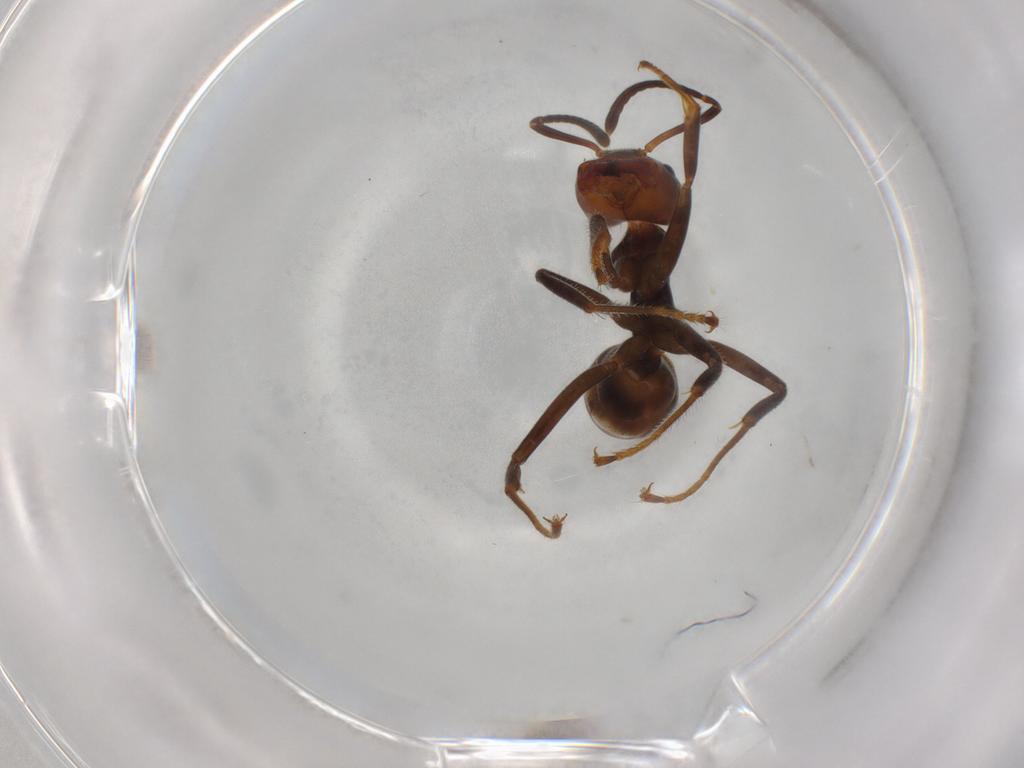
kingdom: Animalia
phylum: Arthropoda
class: Insecta
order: Hymenoptera
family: Formicidae
